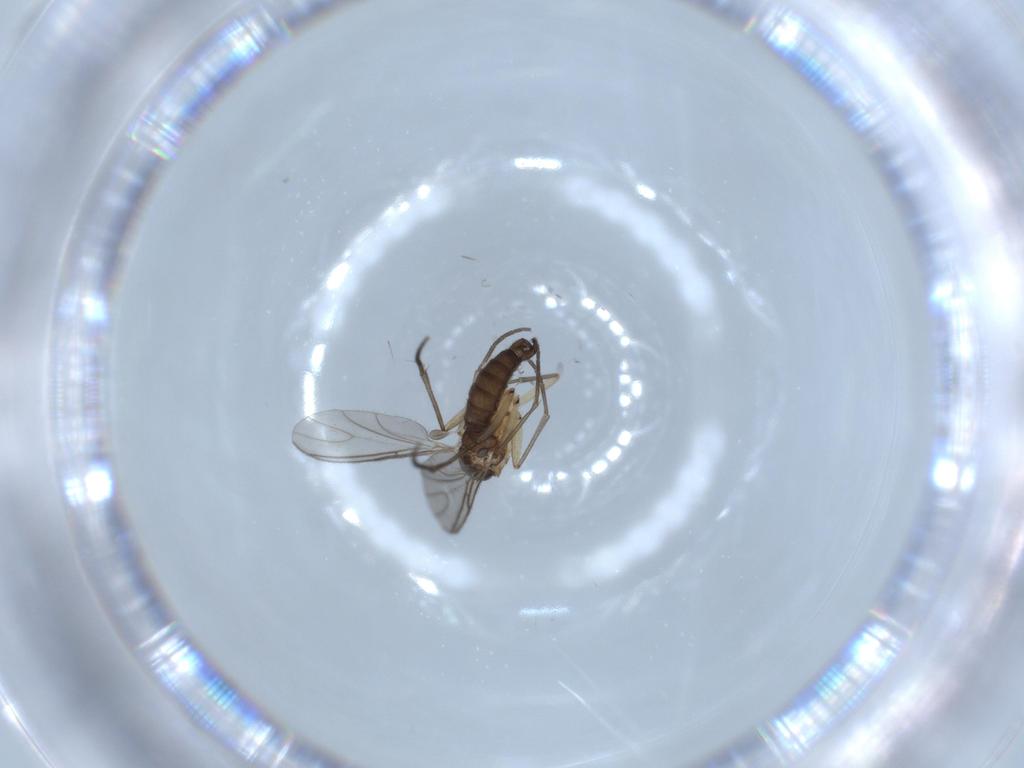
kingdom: Animalia
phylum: Arthropoda
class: Insecta
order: Diptera
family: Sciaridae
